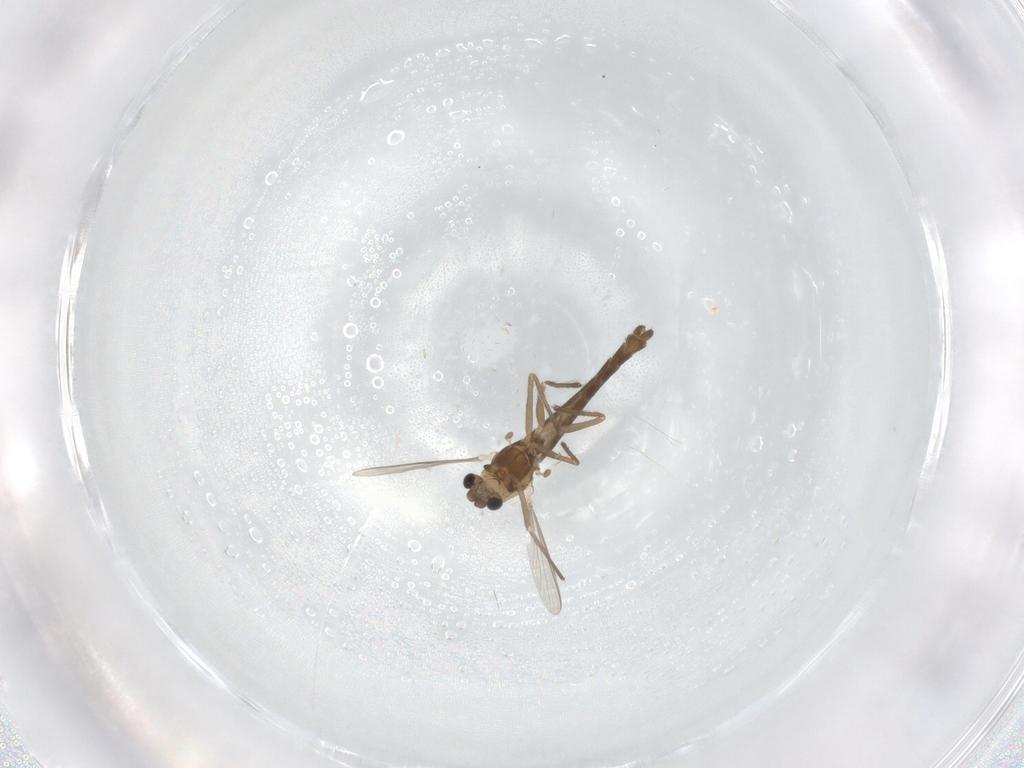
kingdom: Animalia
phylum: Arthropoda
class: Insecta
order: Diptera
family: Chironomidae
